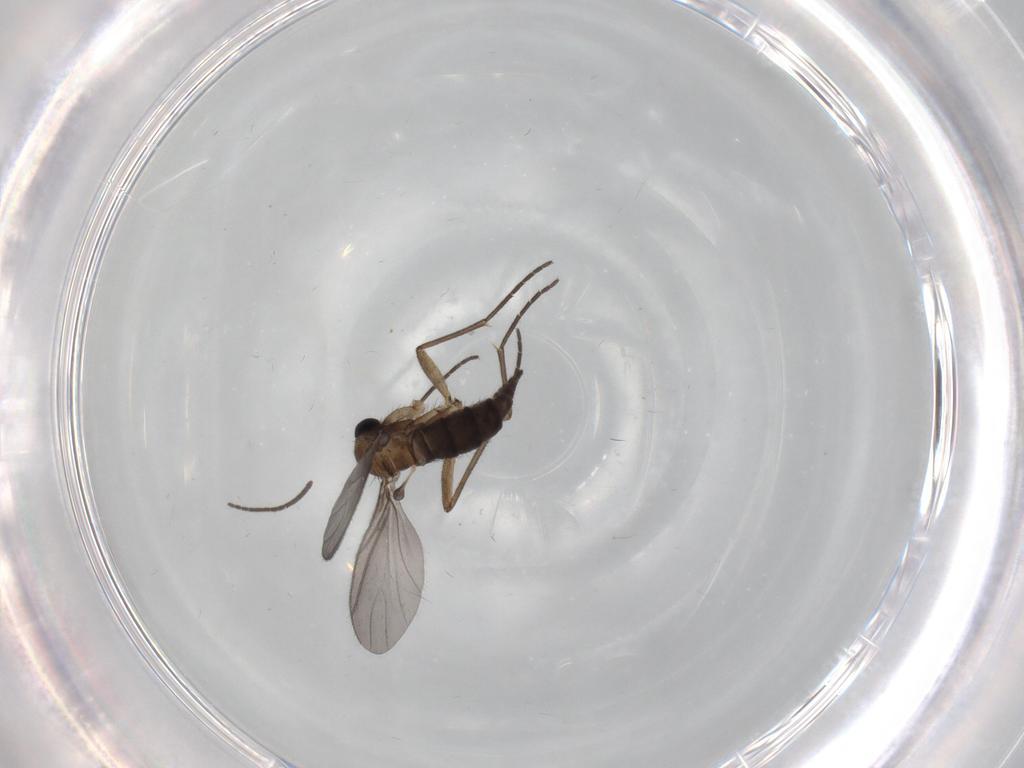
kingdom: Animalia
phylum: Arthropoda
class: Insecta
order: Diptera
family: Sciaridae
